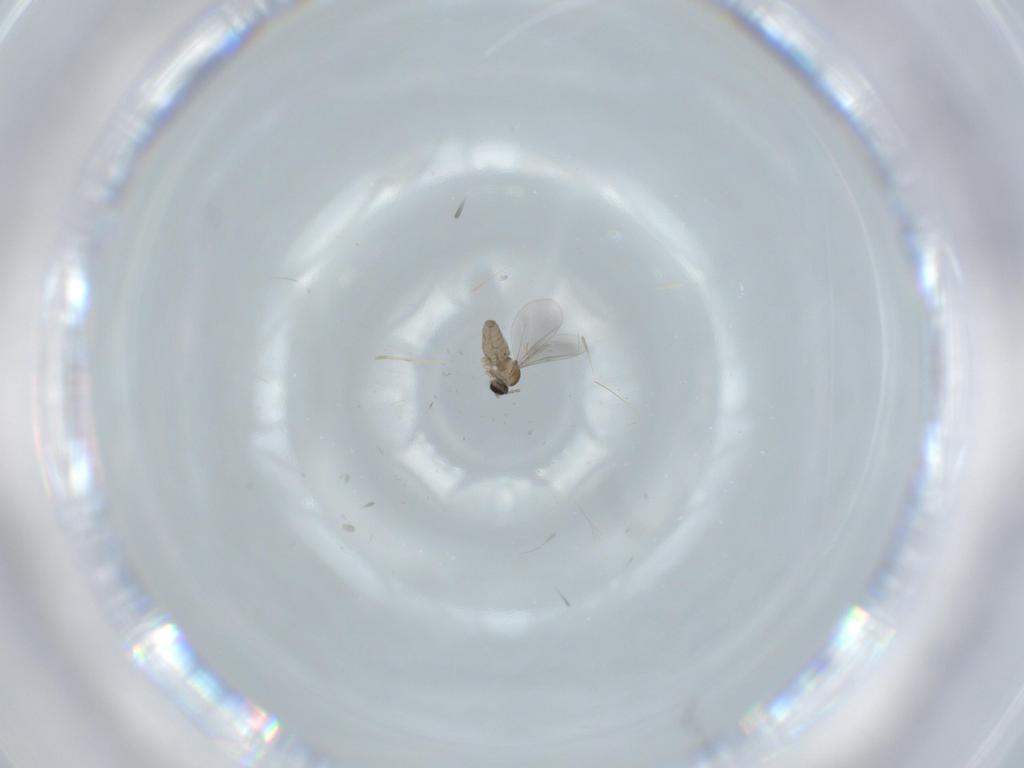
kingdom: Animalia
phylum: Arthropoda
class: Insecta
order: Diptera
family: Cecidomyiidae
